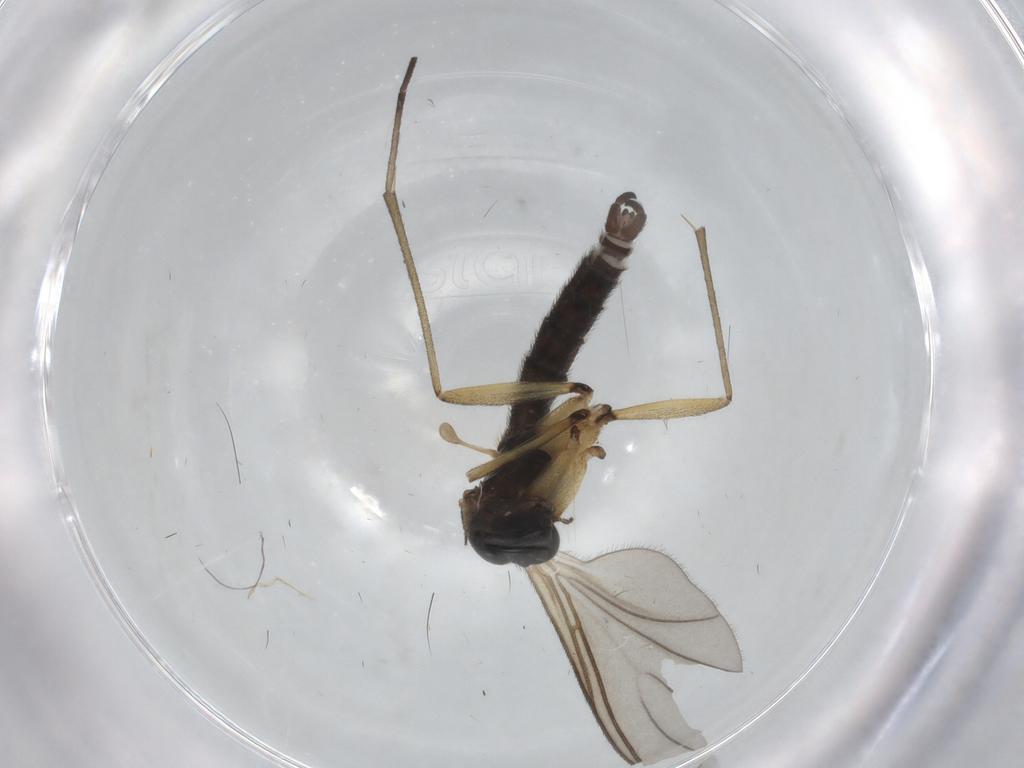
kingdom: Animalia
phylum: Arthropoda
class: Insecta
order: Diptera
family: Sciaridae
